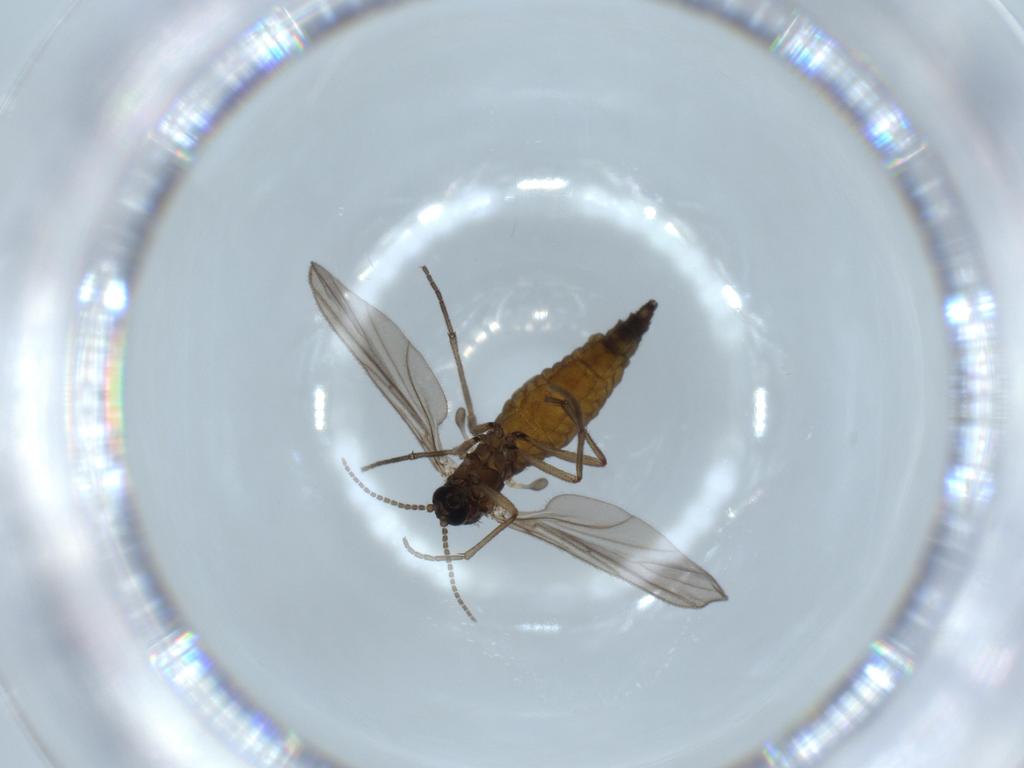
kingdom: Animalia
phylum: Arthropoda
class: Insecta
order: Diptera
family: Sciaridae
